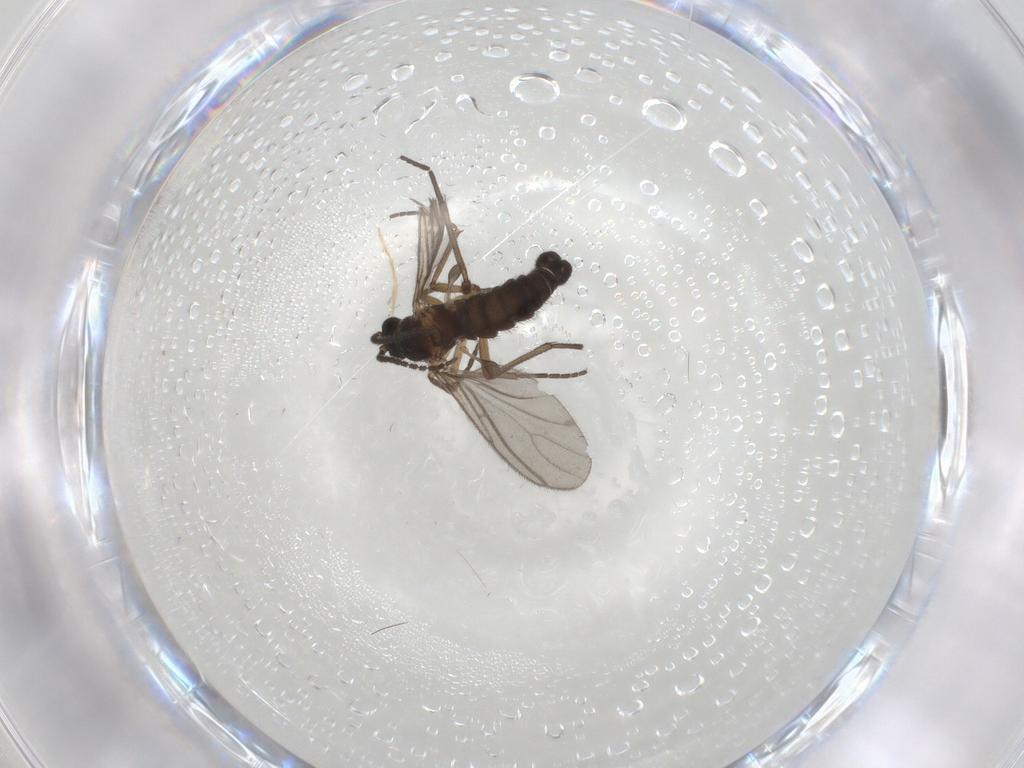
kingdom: Animalia
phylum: Arthropoda
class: Insecta
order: Diptera
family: Sciaridae
